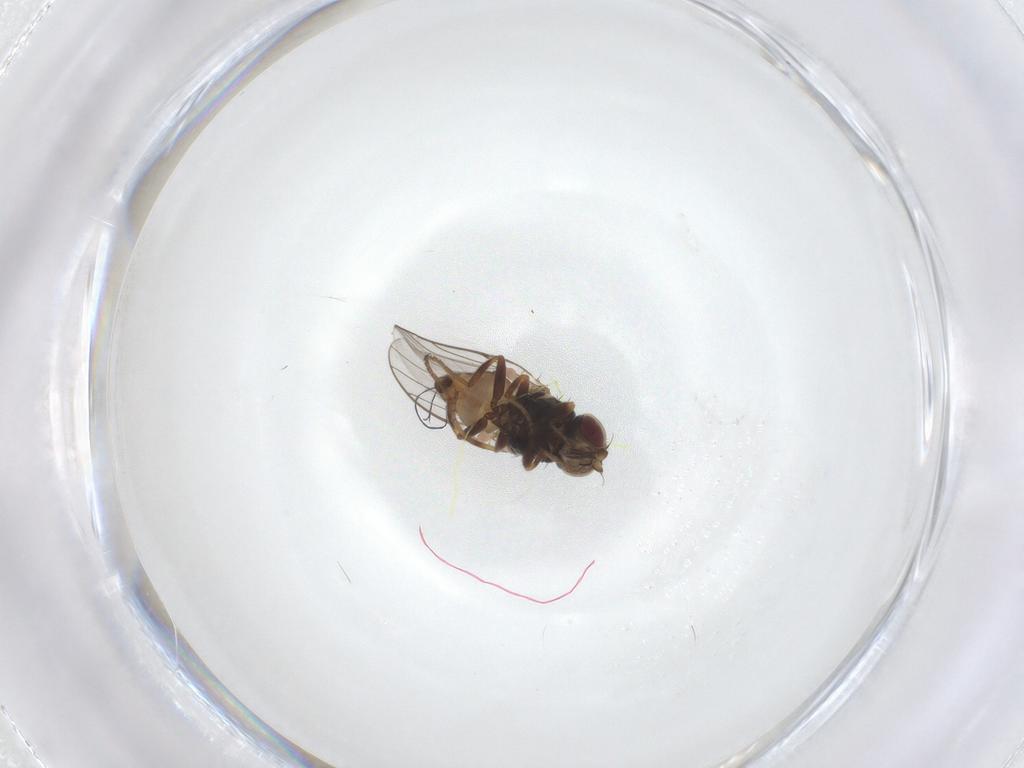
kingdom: Animalia
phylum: Arthropoda
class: Insecta
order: Diptera
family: Chloropidae
